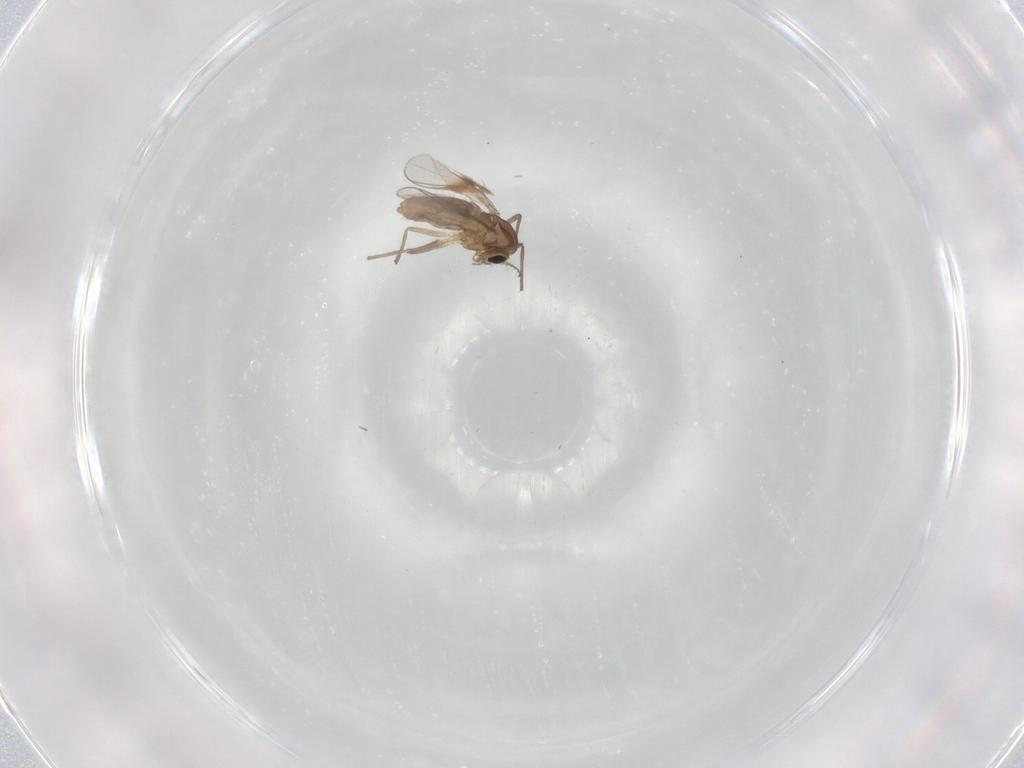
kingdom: Animalia
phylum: Arthropoda
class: Insecta
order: Diptera
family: Chironomidae
